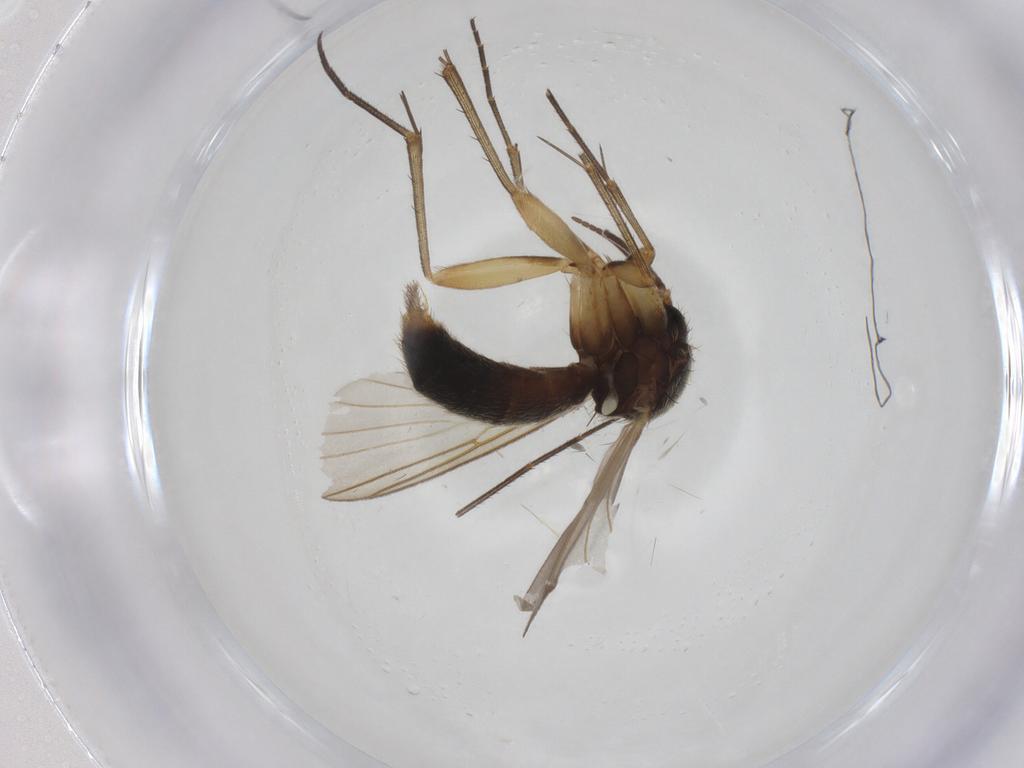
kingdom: Animalia
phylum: Arthropoda
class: Insecta
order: Diptera
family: Mycetophilidae
